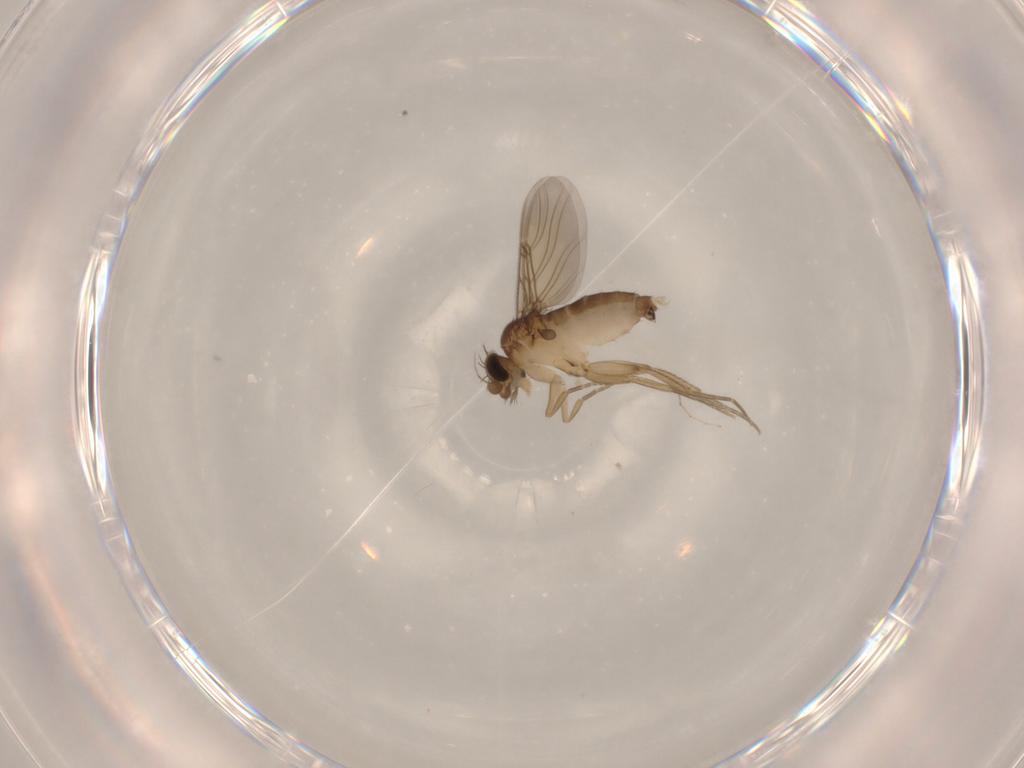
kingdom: Animalia
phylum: Arthropoda
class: Insecta
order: Diptera
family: Phoridae
